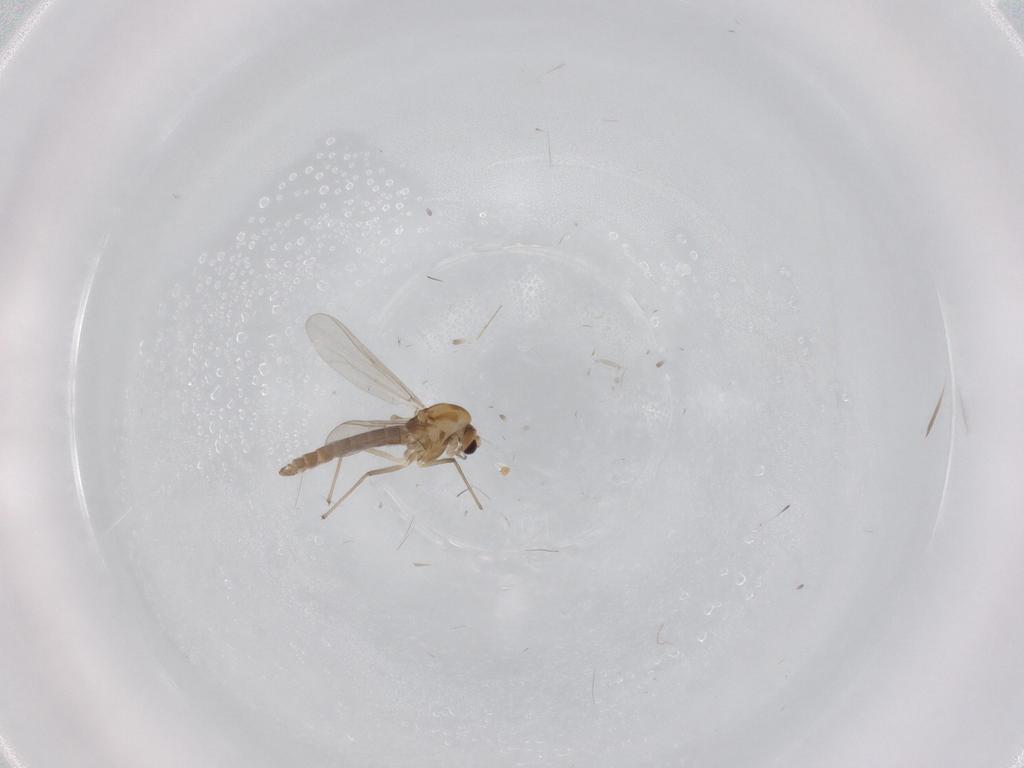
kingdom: Animalia
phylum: Arthropoda
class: Insecta
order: Diptera
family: Chironomidae
